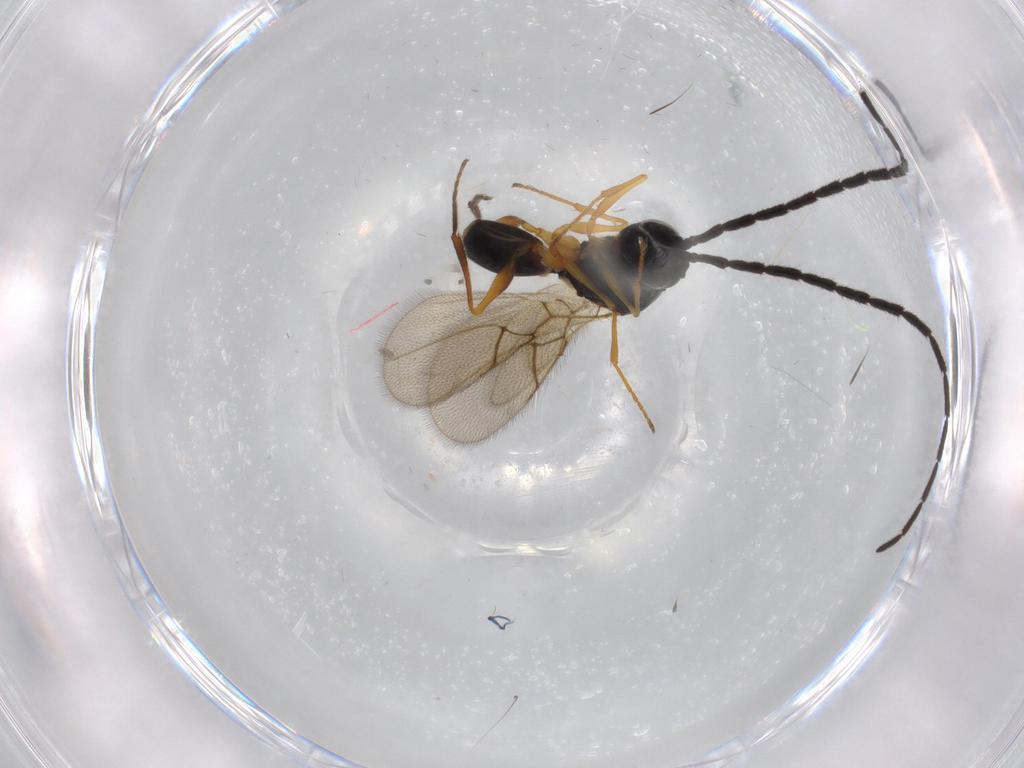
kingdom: Animalia
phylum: Arthropoda
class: Insecta
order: Hymenoptera
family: Figitidae
